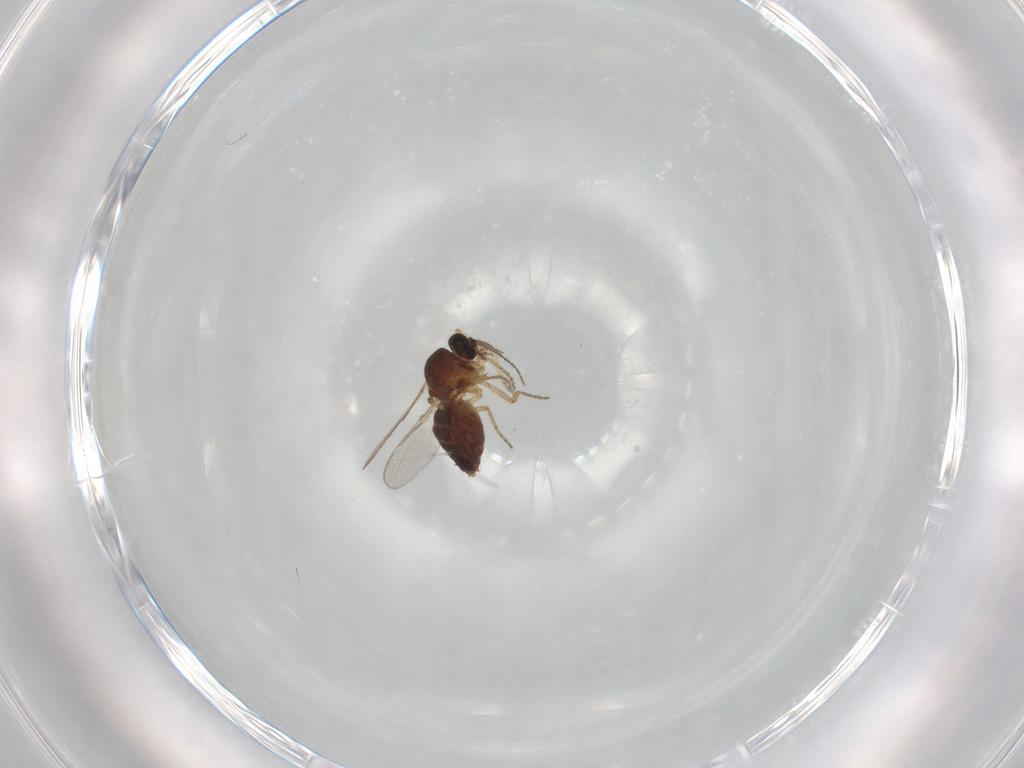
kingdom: Animalia
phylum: Arthropoda
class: Insecta
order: Diptera
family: Ceratopogonidae
